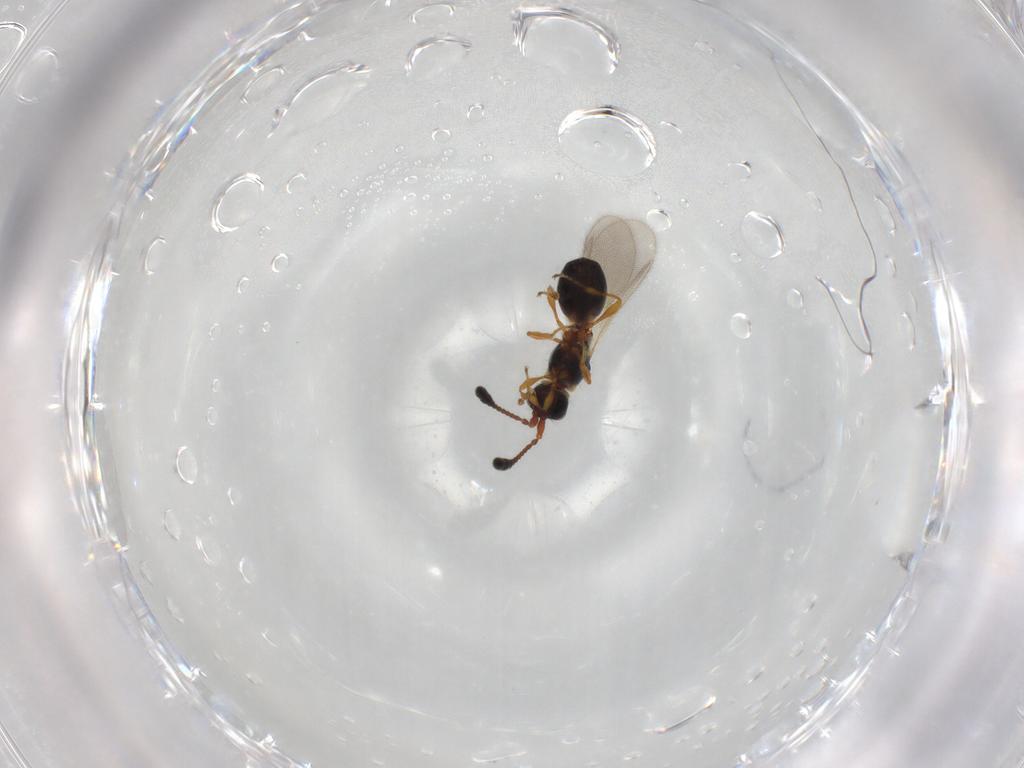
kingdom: Animalia
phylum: Arthropoda
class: Insecta
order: Hymenoptera
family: Diapriidae
